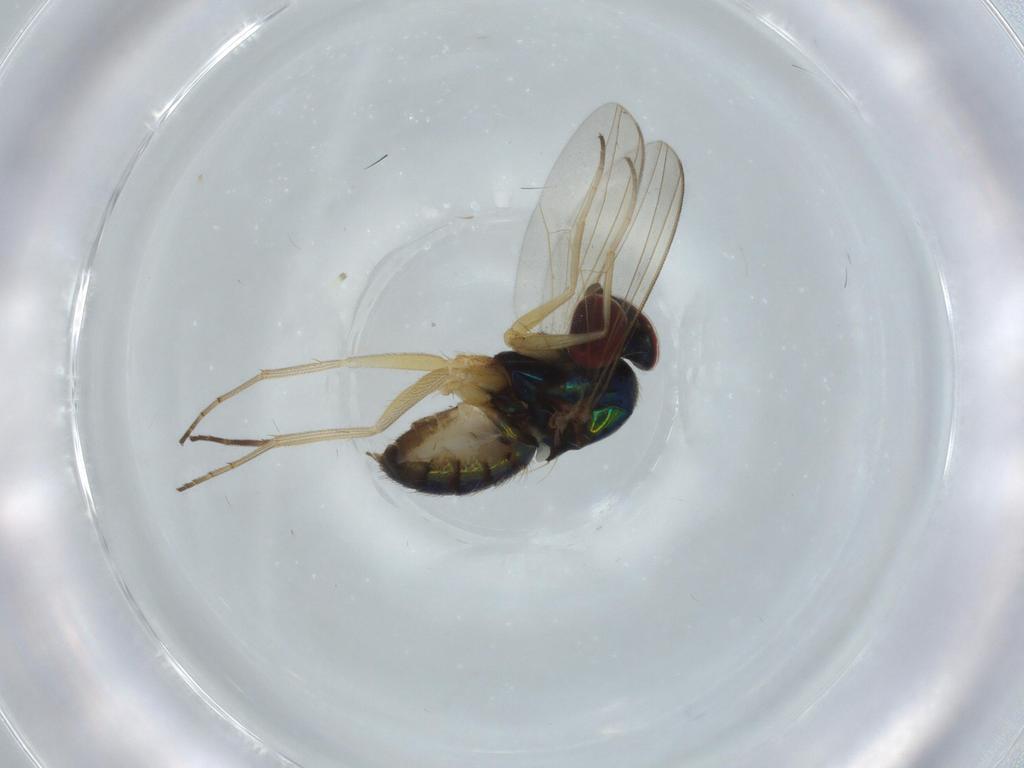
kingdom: Animalia
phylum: Arthropoda
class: Insecta
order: Diptera
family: Dolichopodidae
